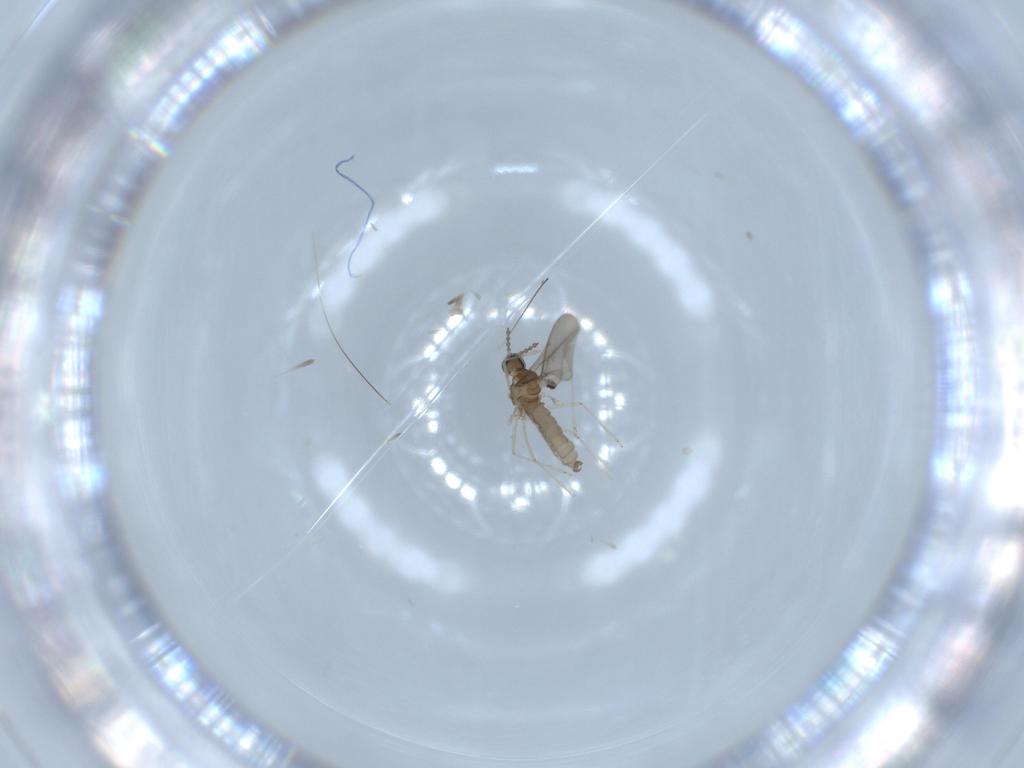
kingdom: Animalia
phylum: Arthropoda
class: Insecta
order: Diptera
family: Cecidomyiidae
